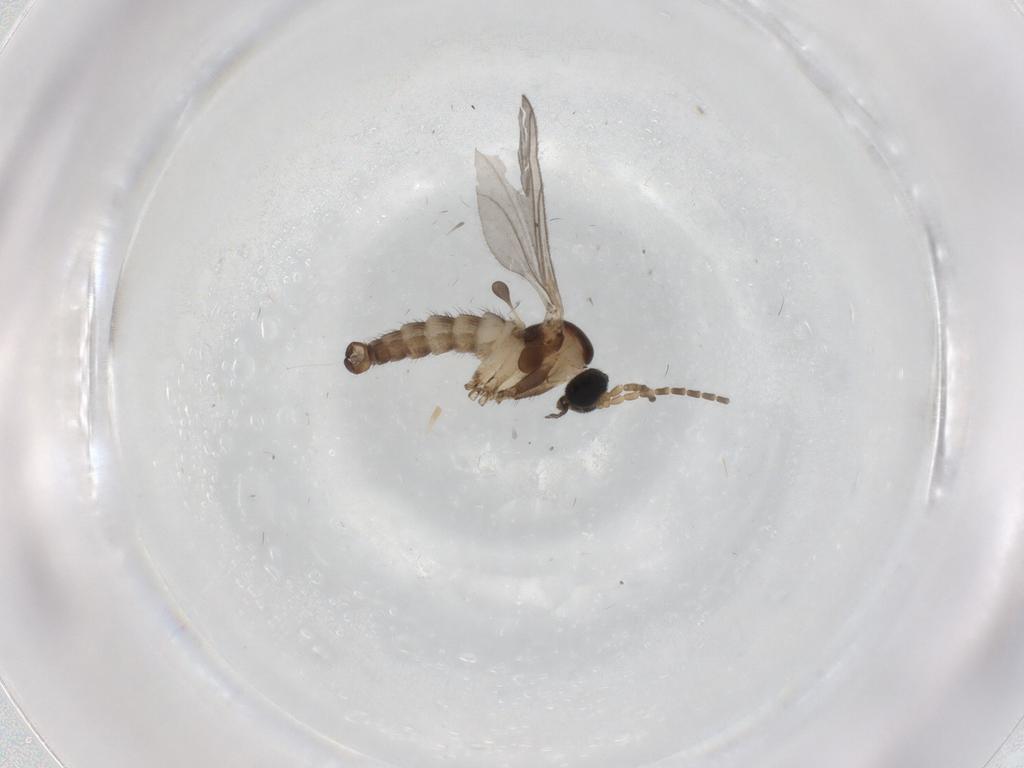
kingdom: Animalia
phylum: Arthropoda
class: Insecta
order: Diptera
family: Sciaridae
